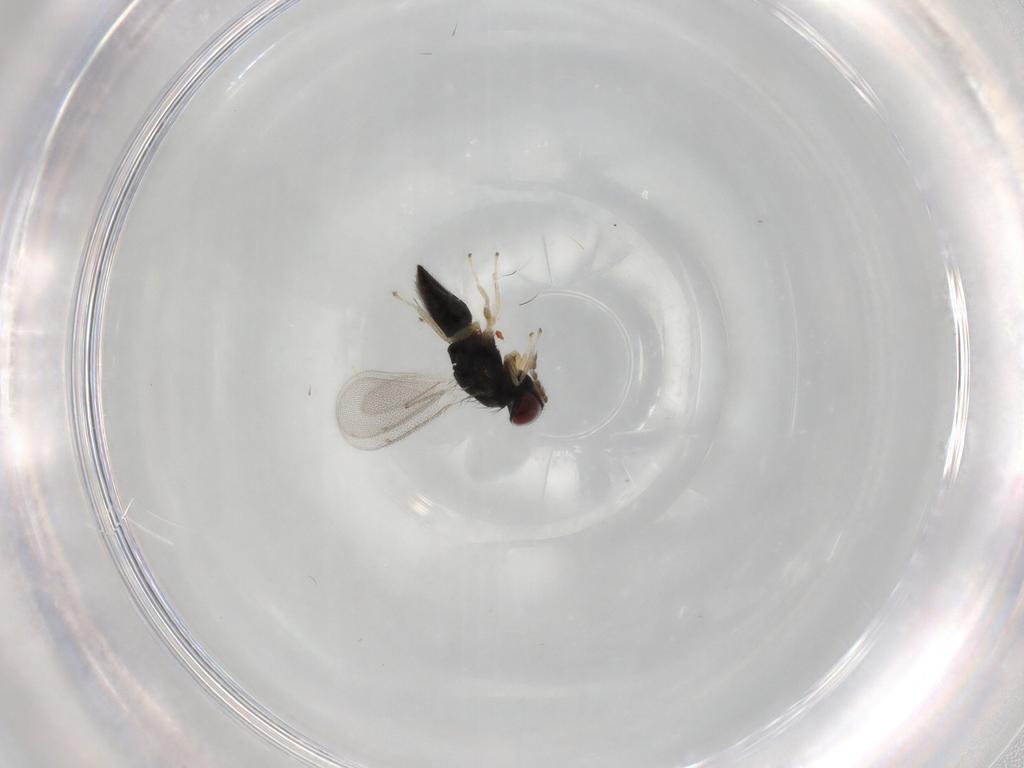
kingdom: Animalia
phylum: Arthropoda
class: Insecta
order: Hymenoptera
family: Eulophidae
